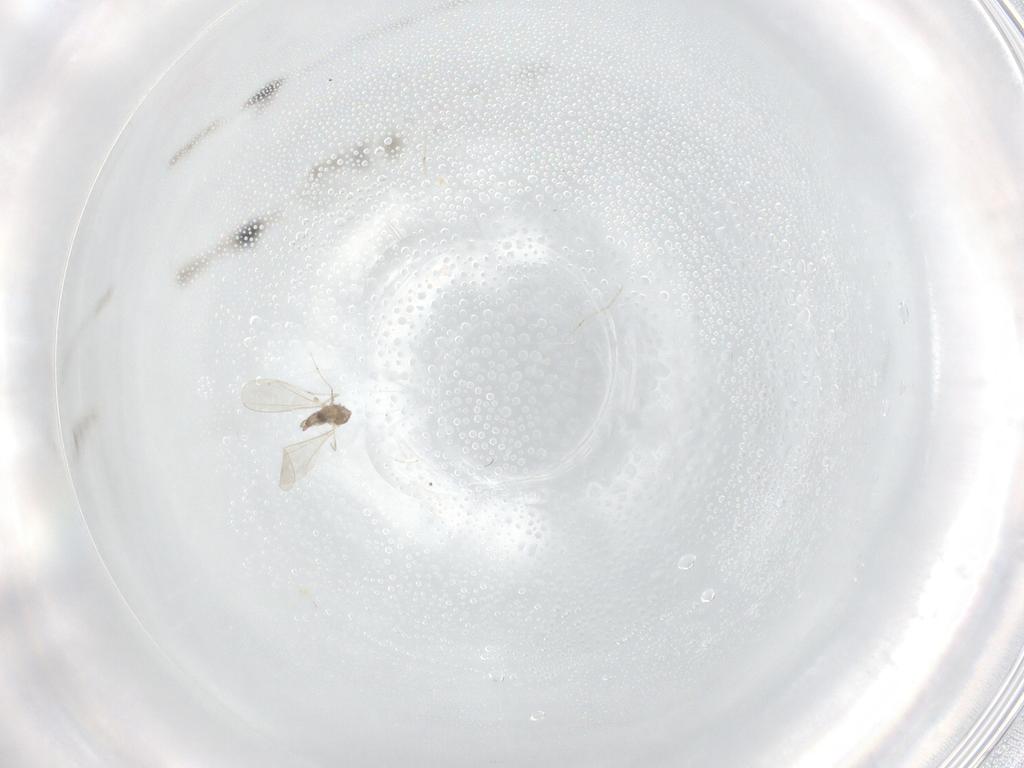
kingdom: Animalia
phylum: Arthropoda
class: Insecta
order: Diptera
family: Cecidomyiidae
